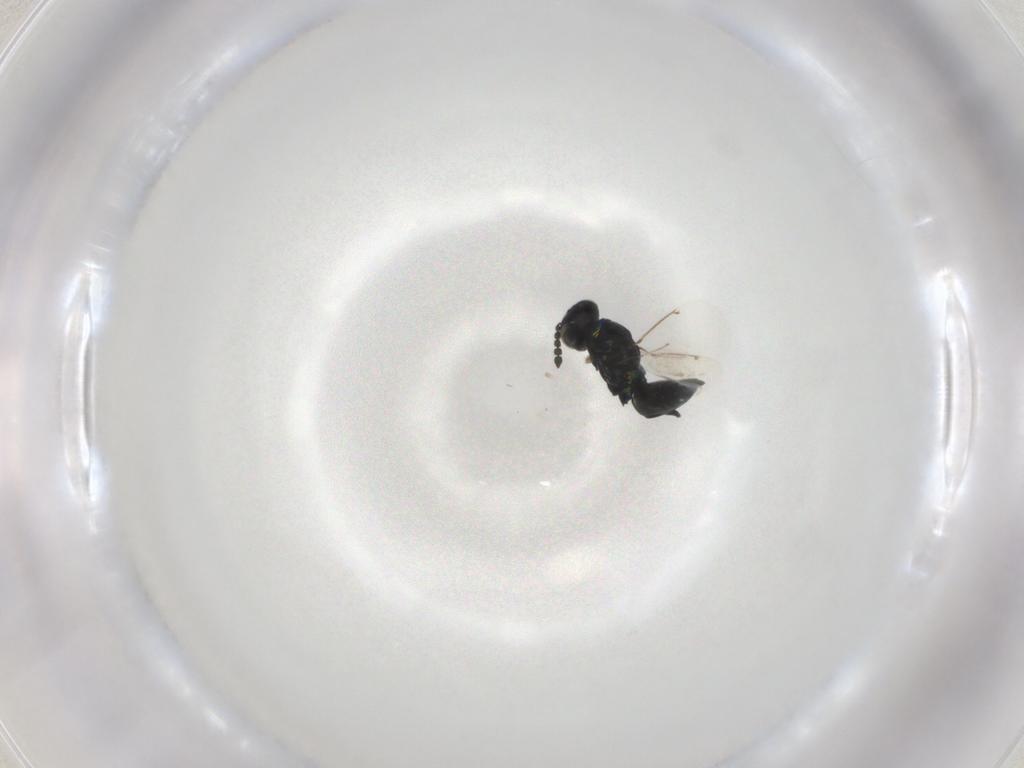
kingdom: Animalia
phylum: Arthropoda
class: Insecta
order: Hymenoptera
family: Eulophidae
